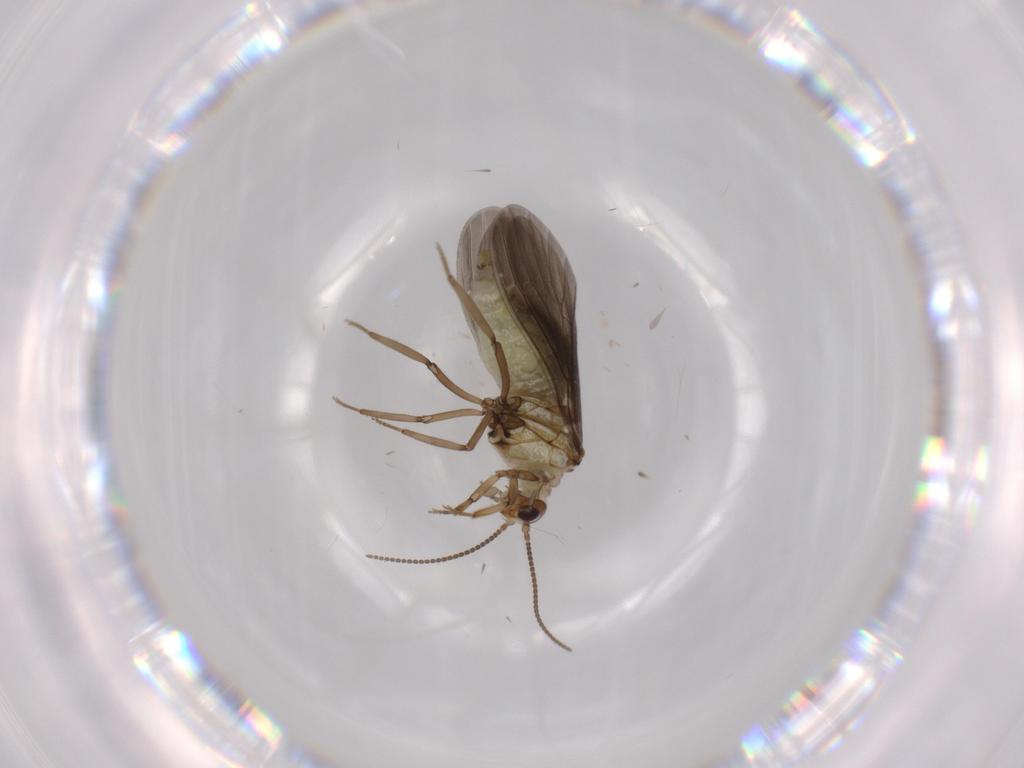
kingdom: Animalia
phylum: Arthropoda
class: Insecta
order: Neuroptera
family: Coniopterygidae
